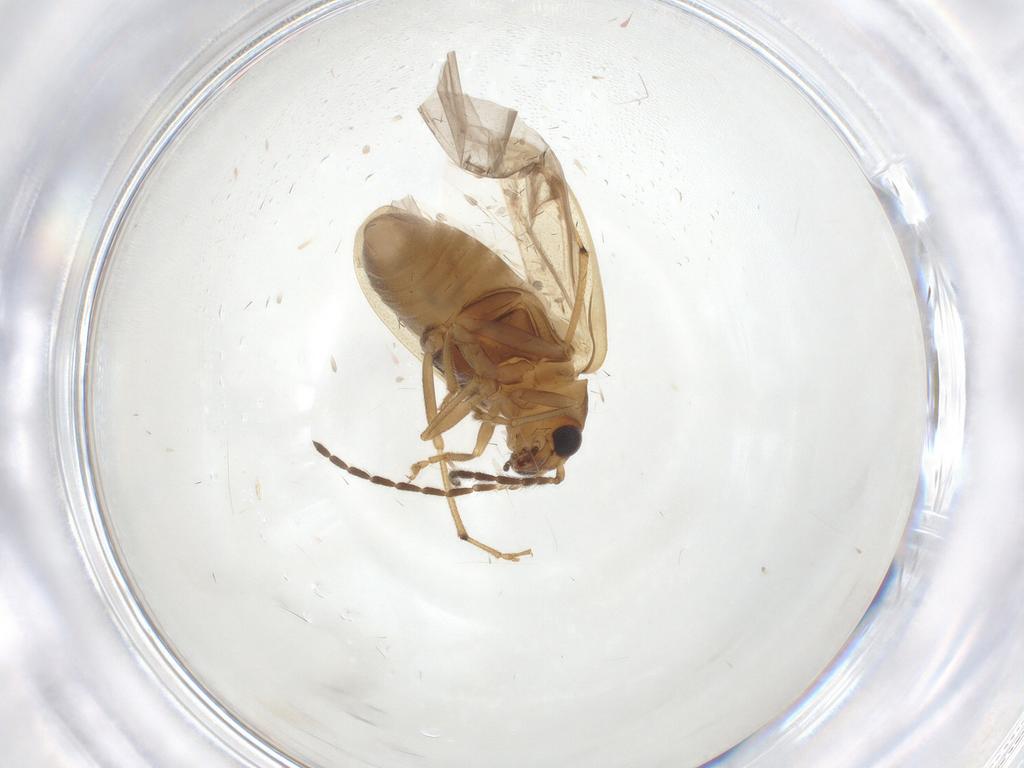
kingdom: Animalia
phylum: Arthropoda
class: Insecta
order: Coleoptera
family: Chrysomelidae
